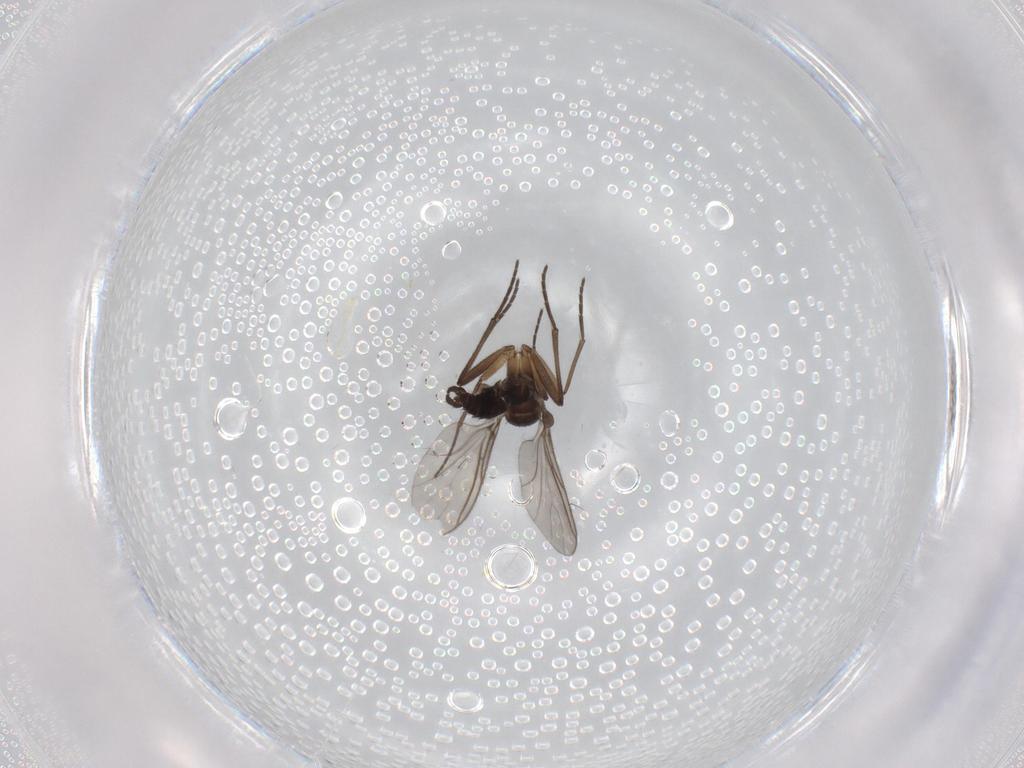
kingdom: Animalia
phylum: Arthropoda
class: Insecta
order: Diptera
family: Sciaridae
